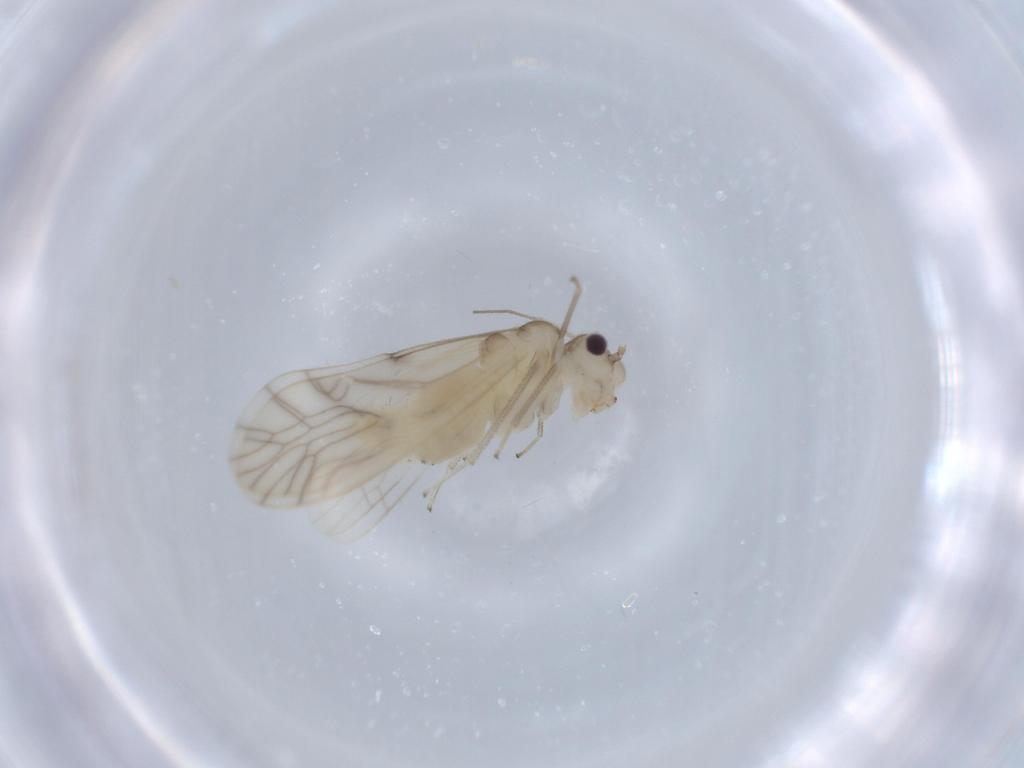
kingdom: Animalia
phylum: Arthropoda
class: Insecta
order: Psocodea
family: Caeciliusidae
